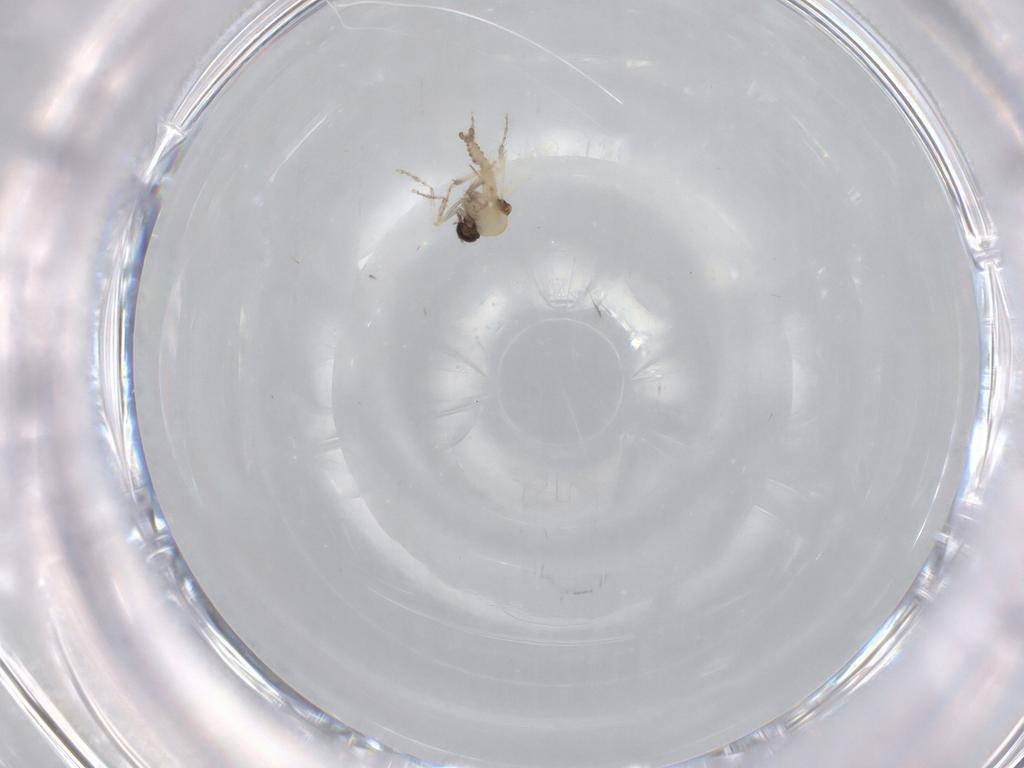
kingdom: Animalia
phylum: Arthropoda
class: Insecta
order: Diptera
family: Ceratopogonidae
